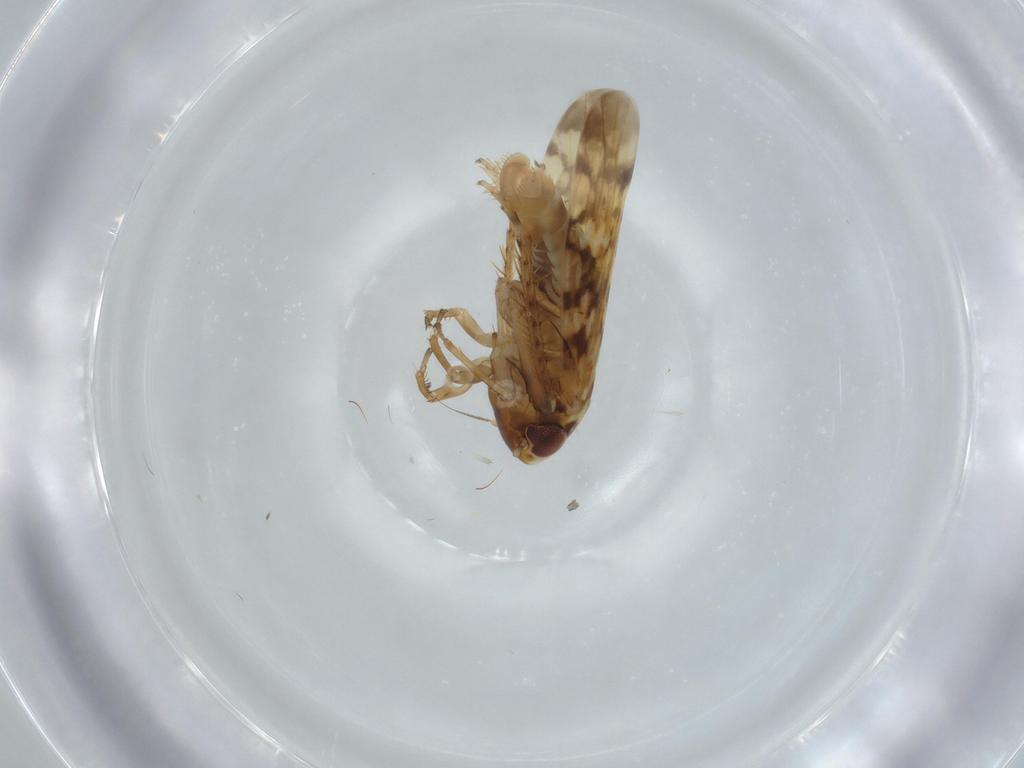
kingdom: Animalia
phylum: Arthropoda
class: Insecta
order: Hemiptera
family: Cicadellidae
